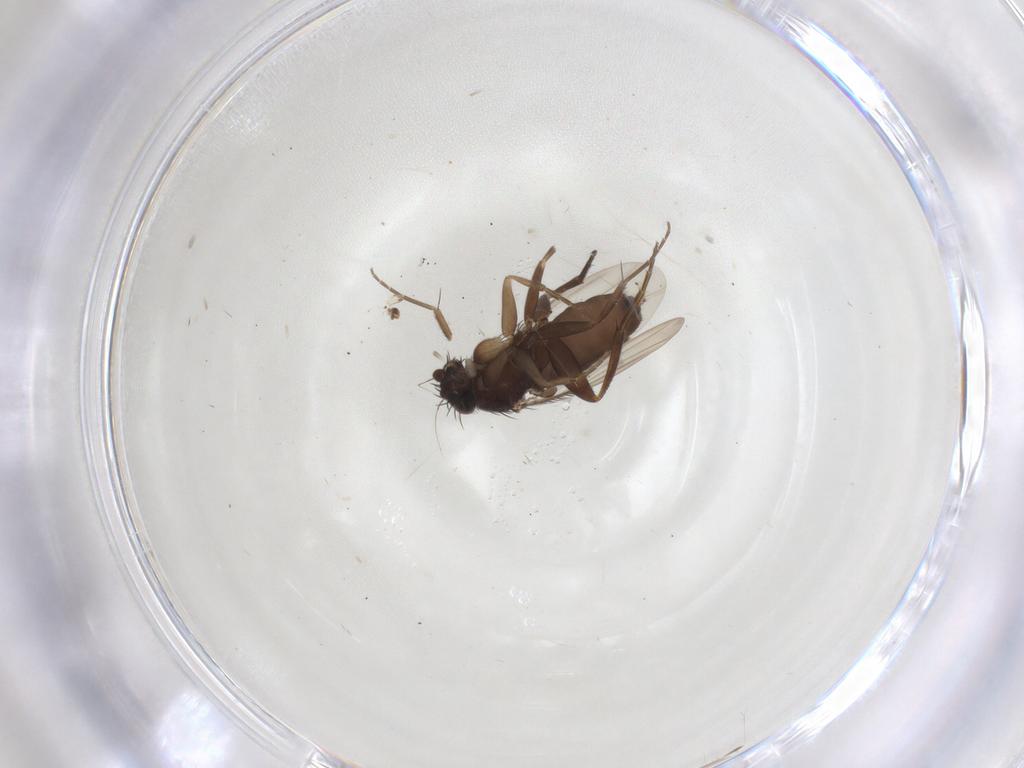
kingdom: Animalia
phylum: Arthropoda
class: Insecta
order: Diptera
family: Phoridae
